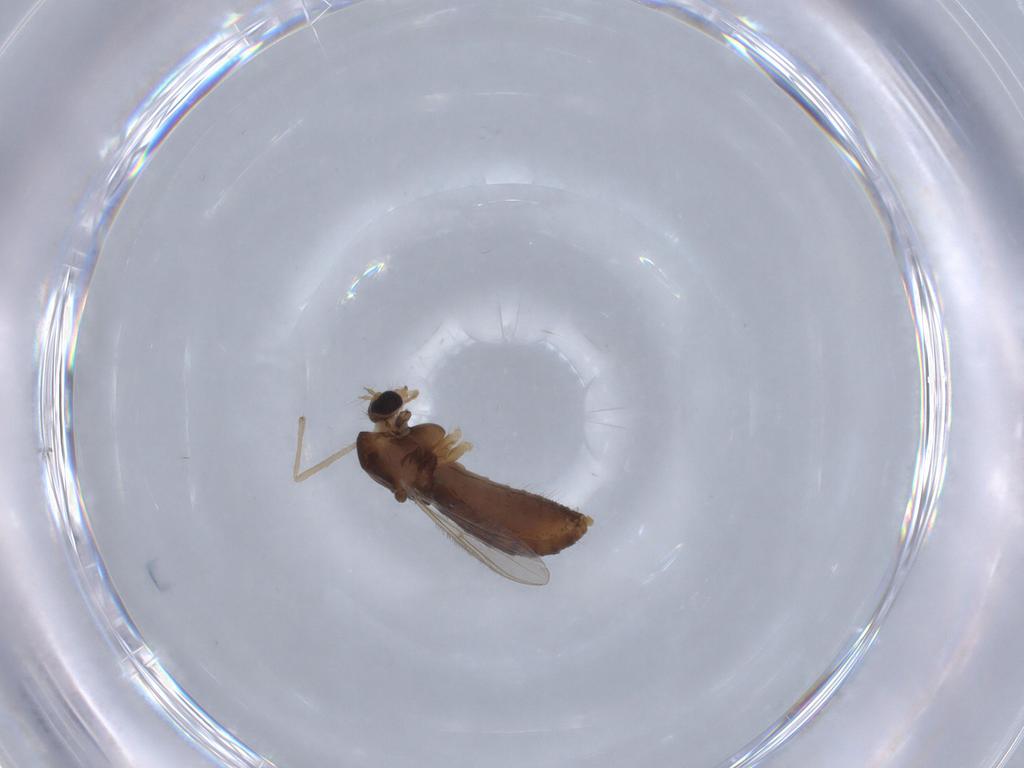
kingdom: Animalia
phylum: Arthropoda
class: Insecta
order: Diptera
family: Chironomidae
